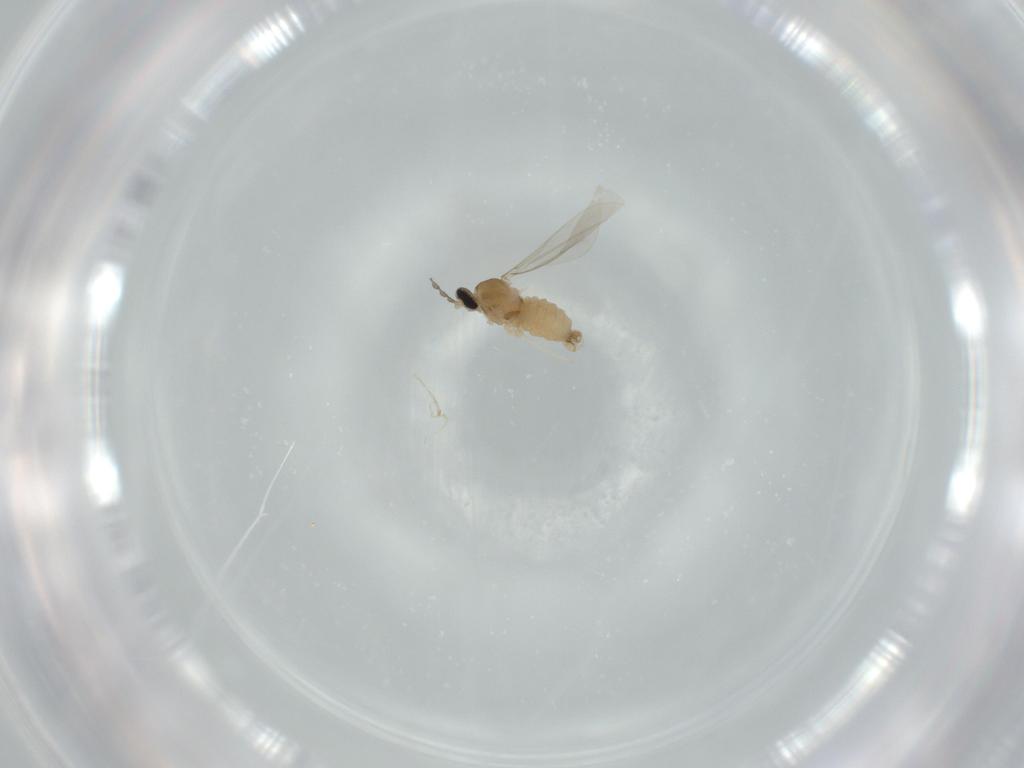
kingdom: Animalia
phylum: Arthropoda
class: Insecta
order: Diptera
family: Cecidomyiidae
